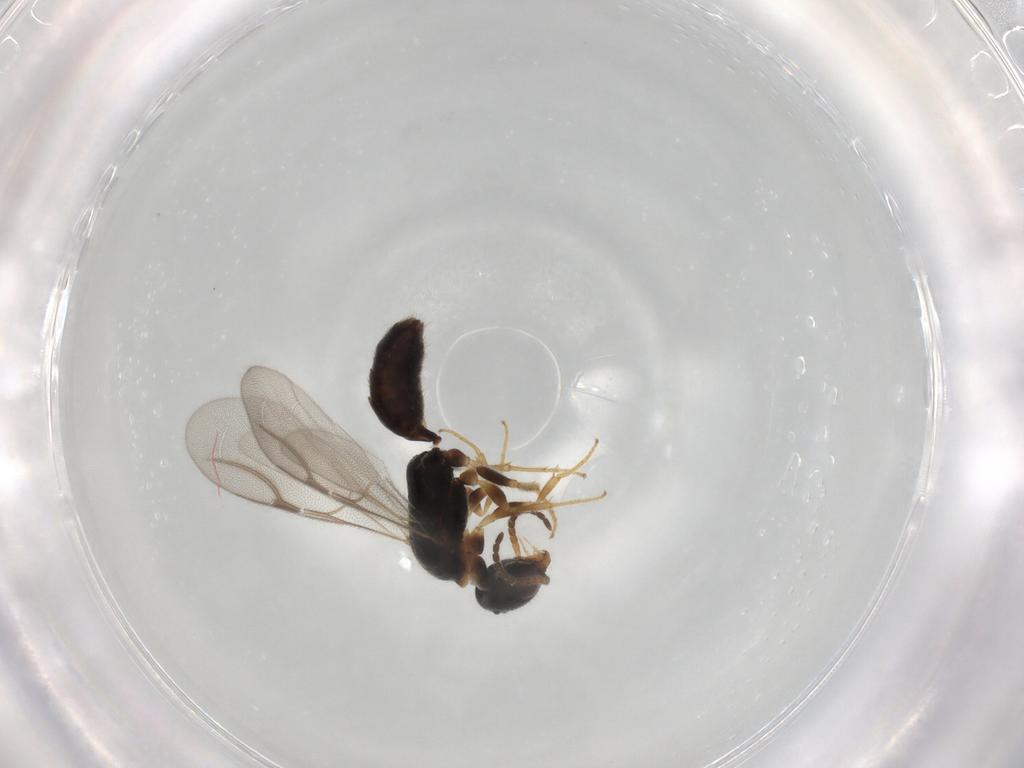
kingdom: Animalia
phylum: Arthropoda
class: Insecta
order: Hymenoptera
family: Bethylidae
